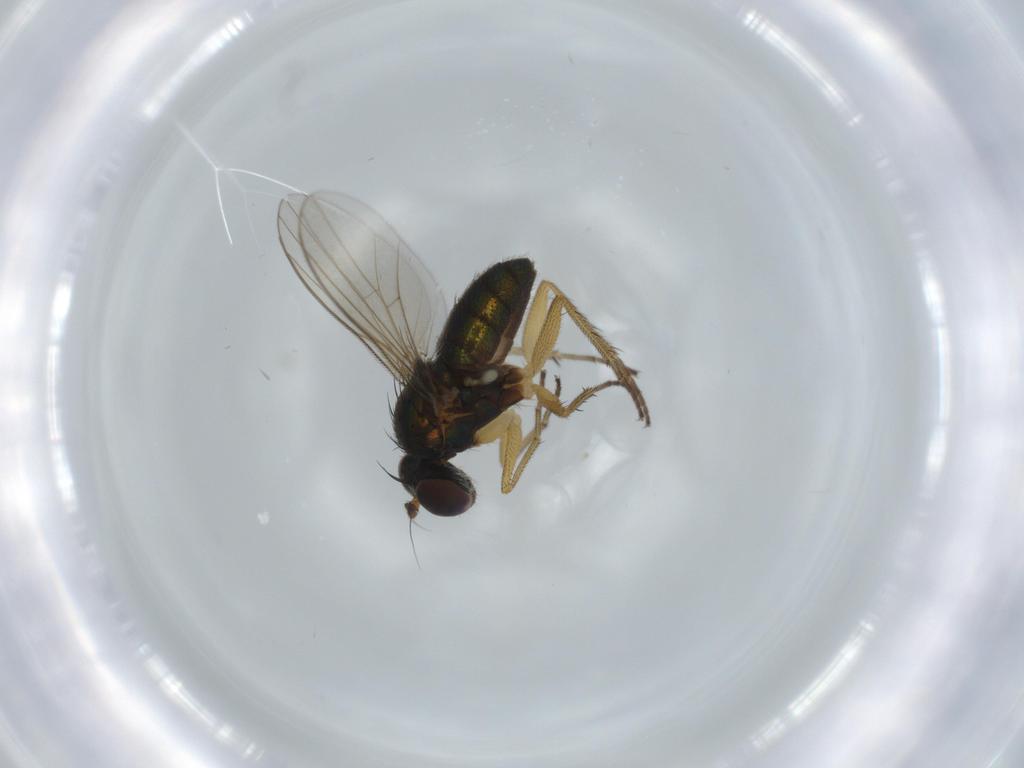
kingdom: Animalia
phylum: Arthropoda
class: Insecta
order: Diptera
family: Dolichopodidae
